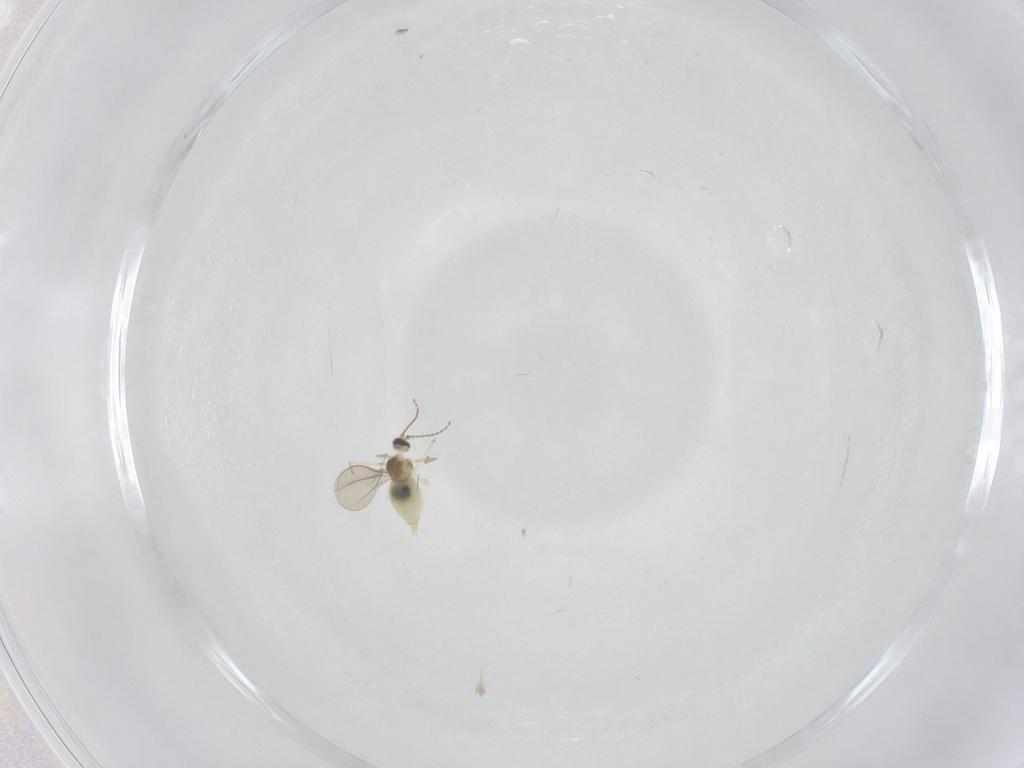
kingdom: Animalia
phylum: Arthropoda
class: Insecta
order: Diptera
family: Cecidomyiidae
